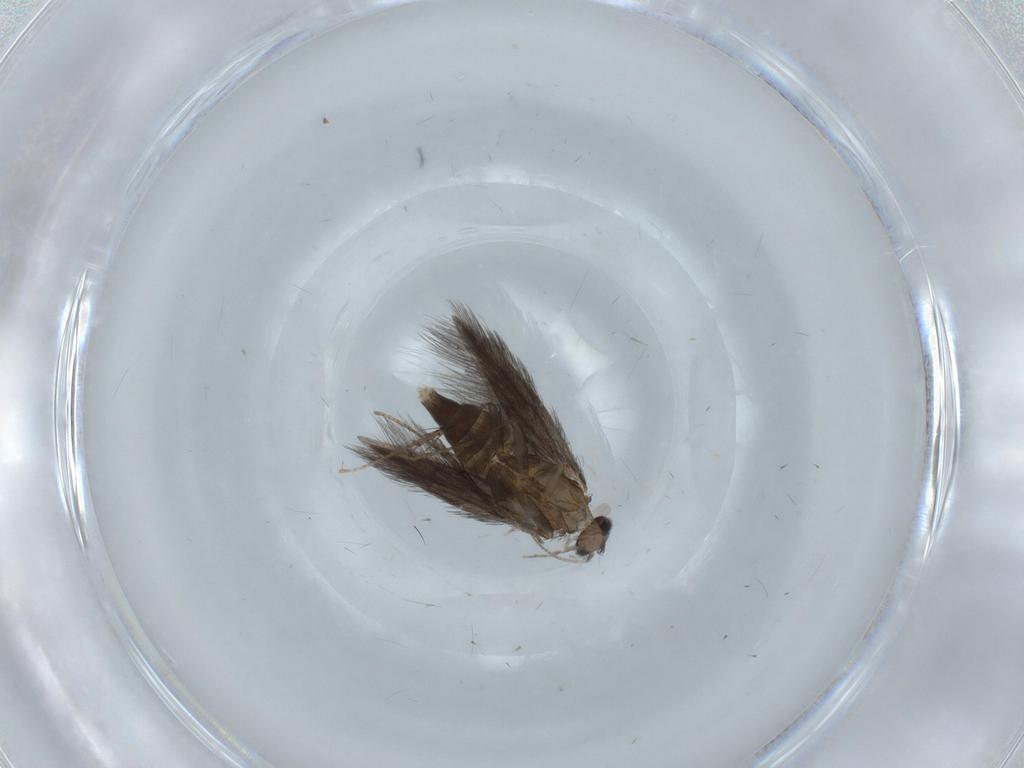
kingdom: Animalia
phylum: Arthropoda
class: Insecta
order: Trichoptera
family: Hydroptilidae
